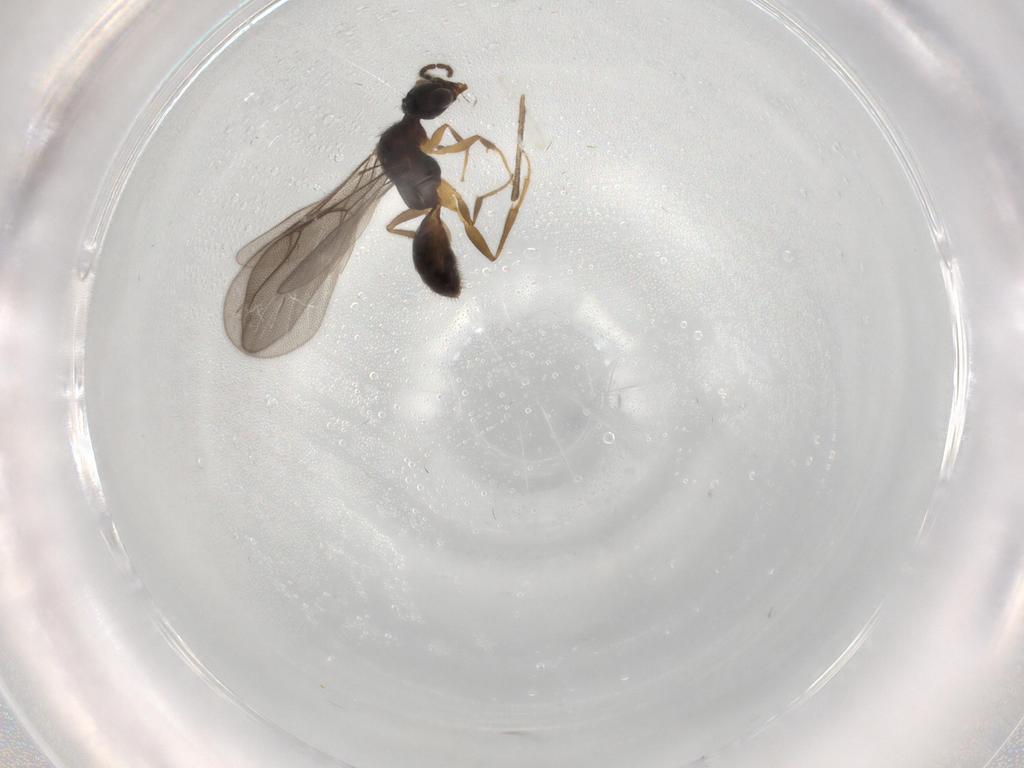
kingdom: Animalia
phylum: Arthropoda
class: Insecta
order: Hymenoptera
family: Bethylidae
